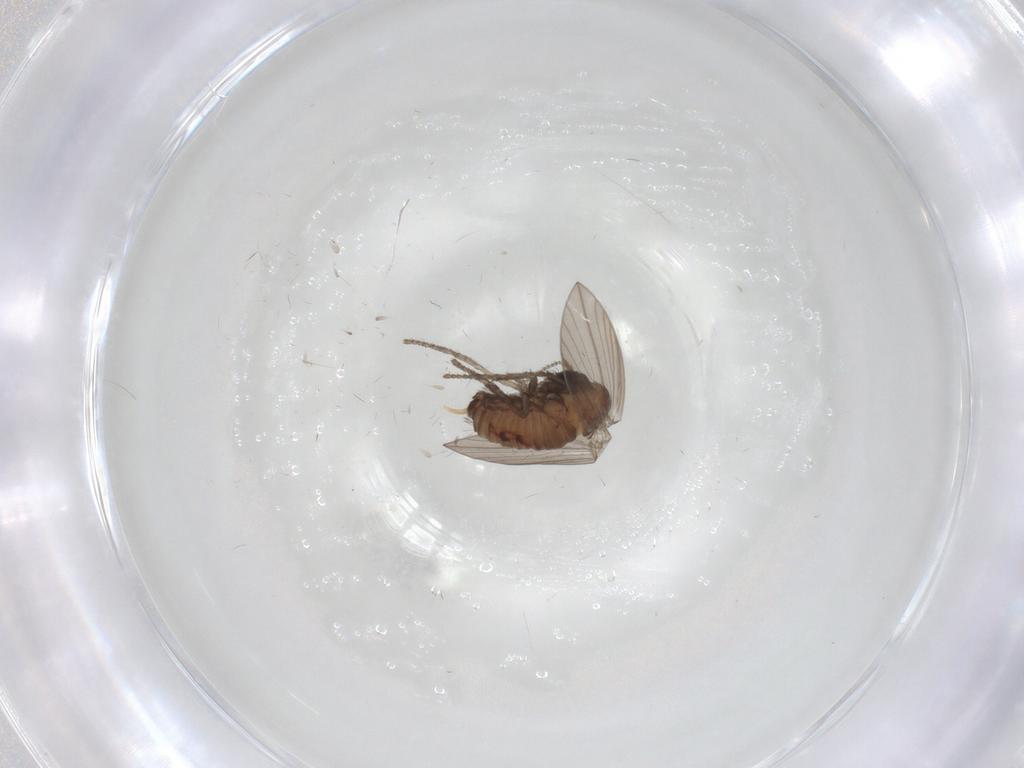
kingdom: Animalia
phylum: Arthropoda
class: Insecta
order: Diptera
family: Psychodidae
